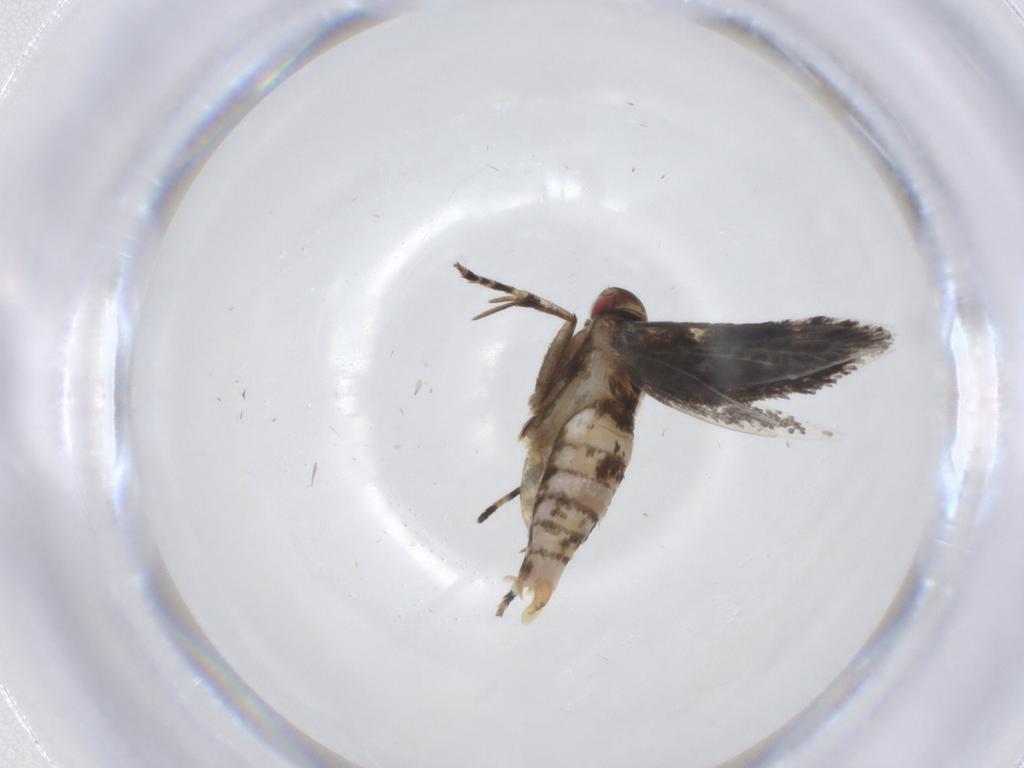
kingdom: Animalia
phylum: Arthropoda
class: Insecta
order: Lepidoptera
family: Cosmopterigidae
